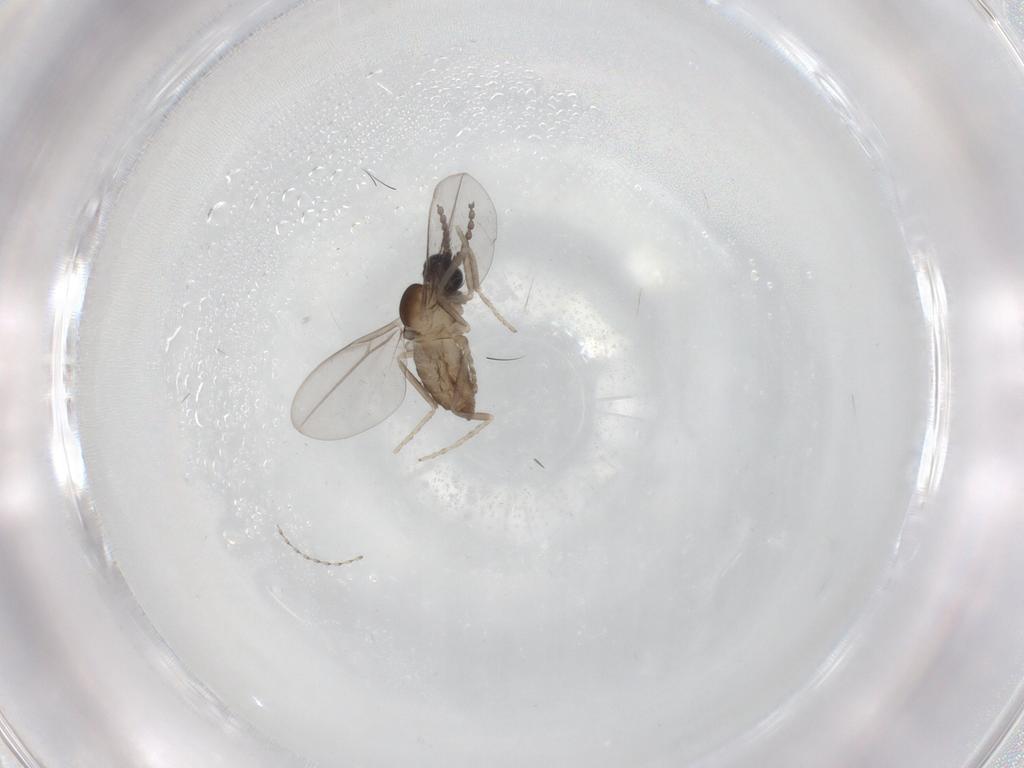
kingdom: Animalia
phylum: Arthropoda
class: Insecta
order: Diptera
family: Cecidomyiidae
